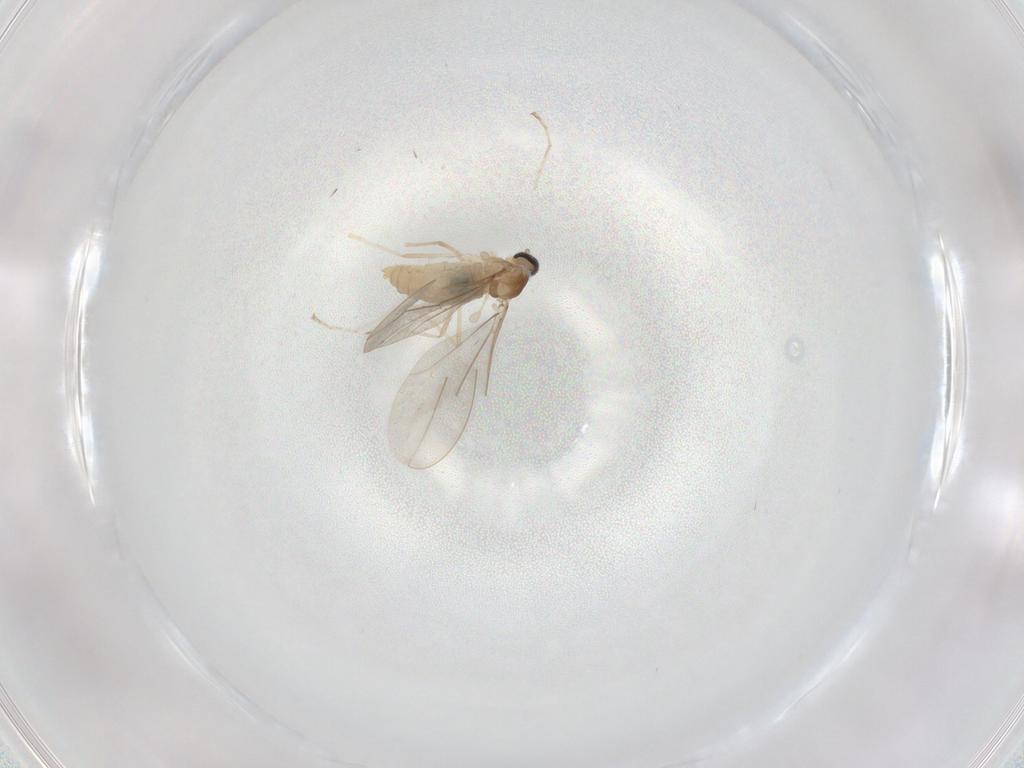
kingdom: Animalia
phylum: Arthropoda
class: Insecta
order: Diptera
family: Cecidomyiidae
